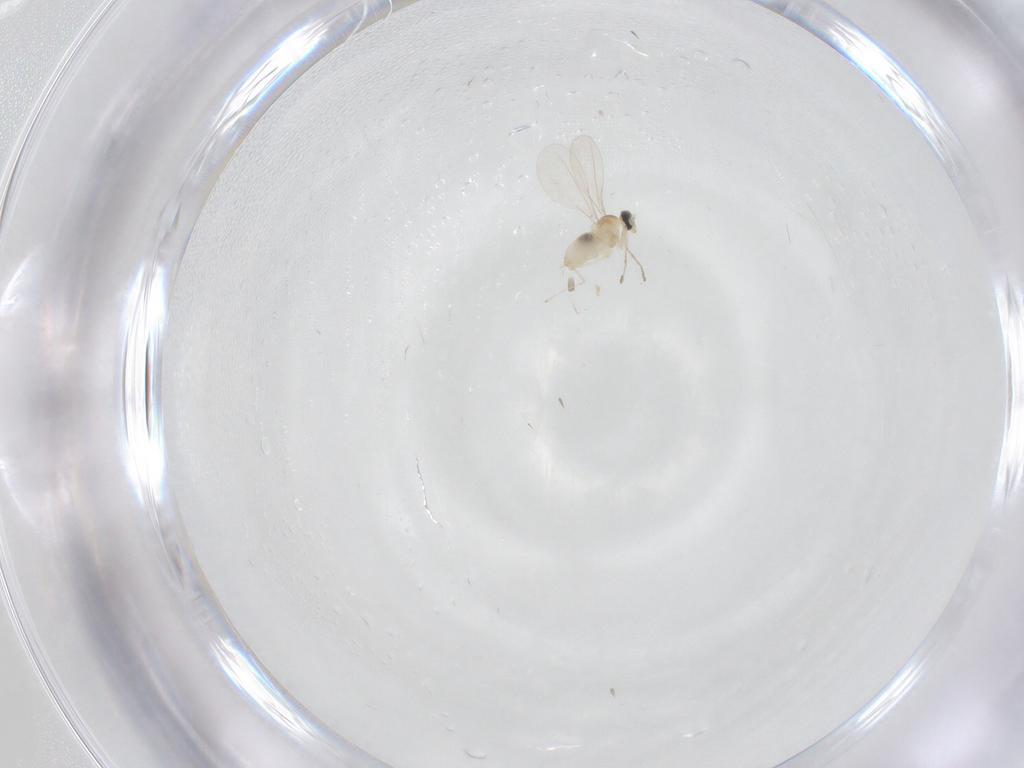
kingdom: Animalia
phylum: Arthropoda
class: Insecta
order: Diptera
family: Cecidomyiidae
